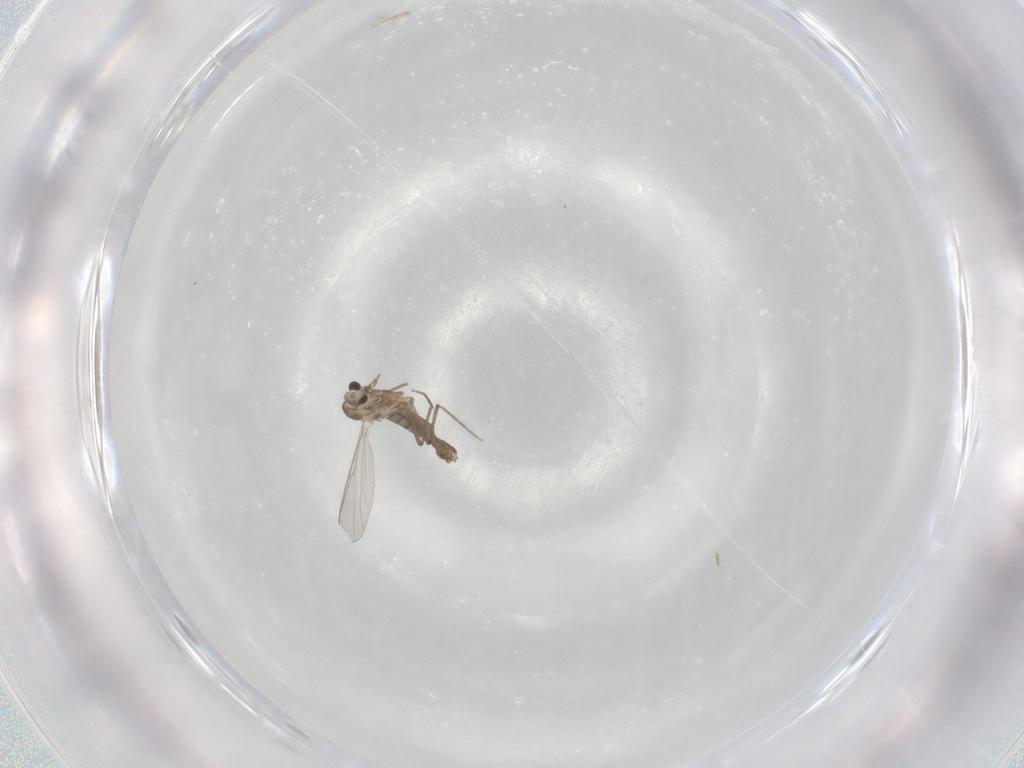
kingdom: Animalia
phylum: Arthropoda
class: Insecta
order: Diptera
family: Chironomidae
